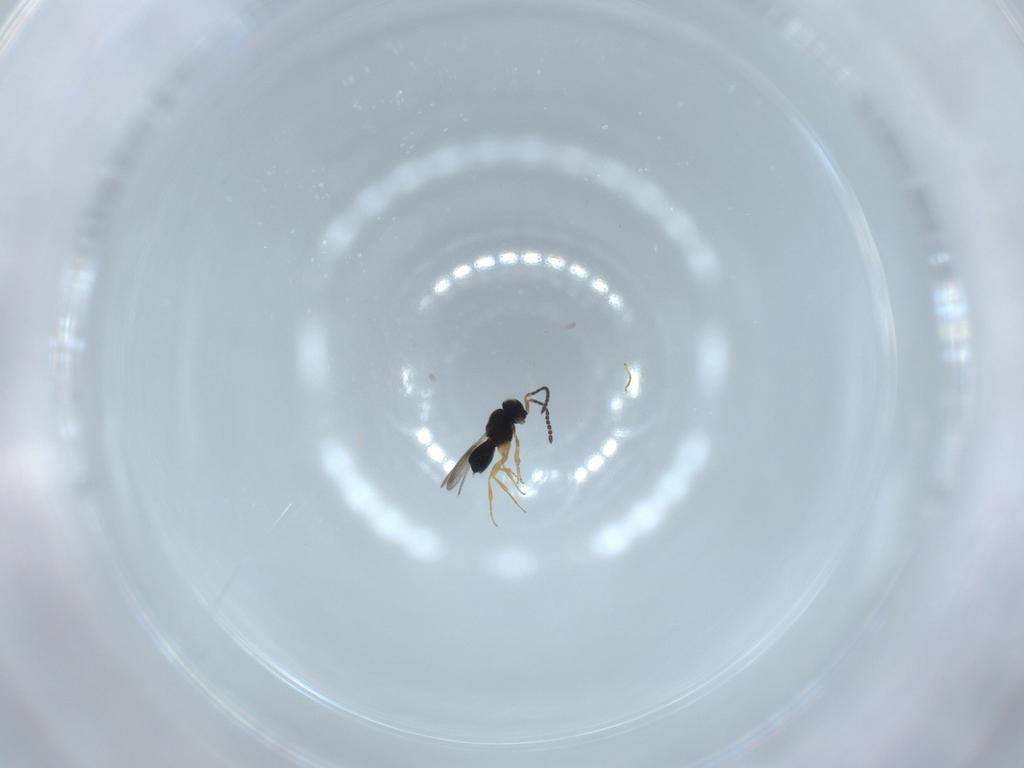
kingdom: Animalia
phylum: Arthropoda
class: Insecta
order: Hymenoptera
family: Scelionidae
